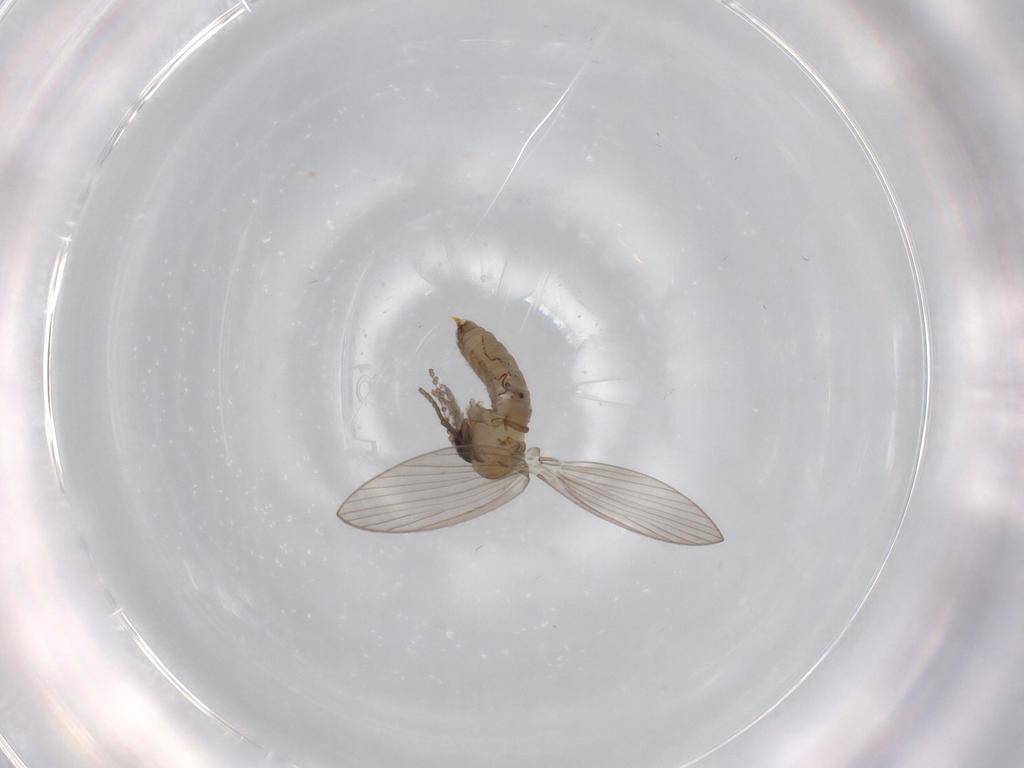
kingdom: Animalia
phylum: Arthropoda
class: Insecta
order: Diptera
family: Psychodidae
